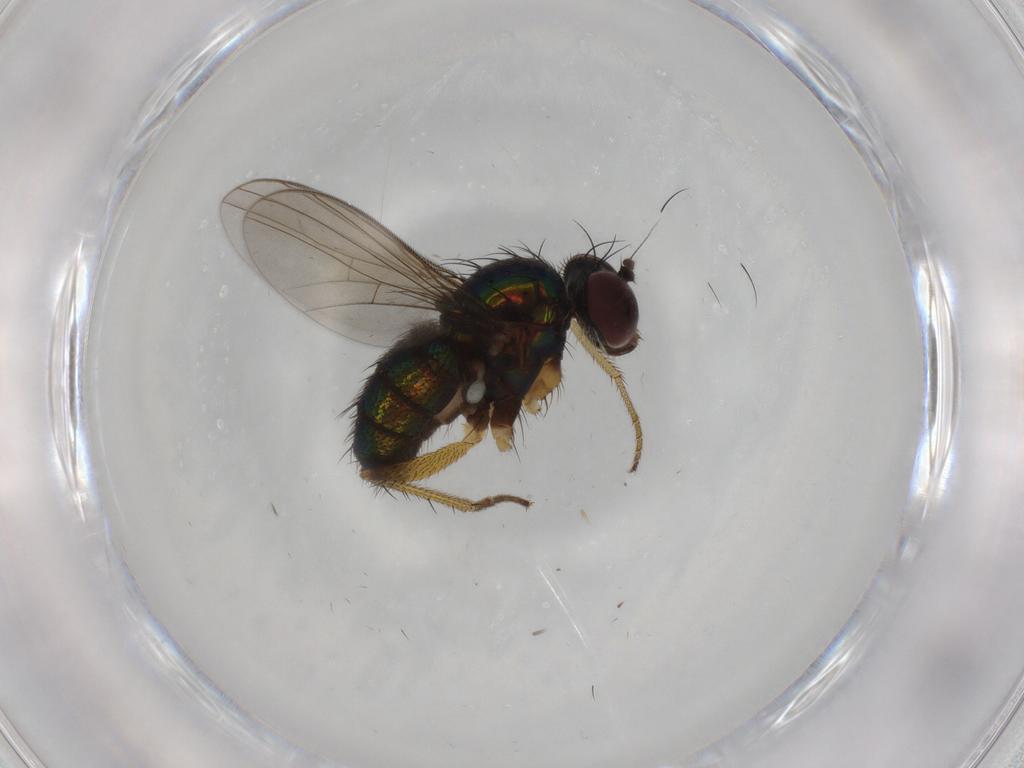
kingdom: Animalia
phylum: Arthropoda
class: Insecta
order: Diptera
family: Dolichopodidae
